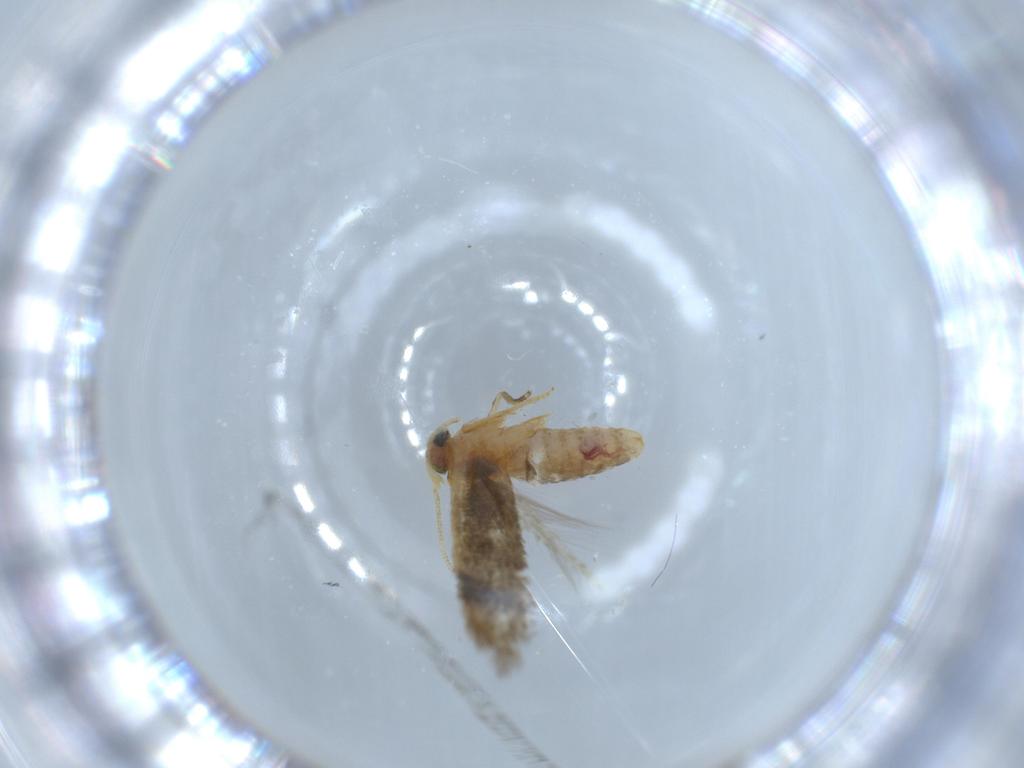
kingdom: Animalia
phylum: Arthropoda
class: Insecta
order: Lepidoptera
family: Nepticulidae
